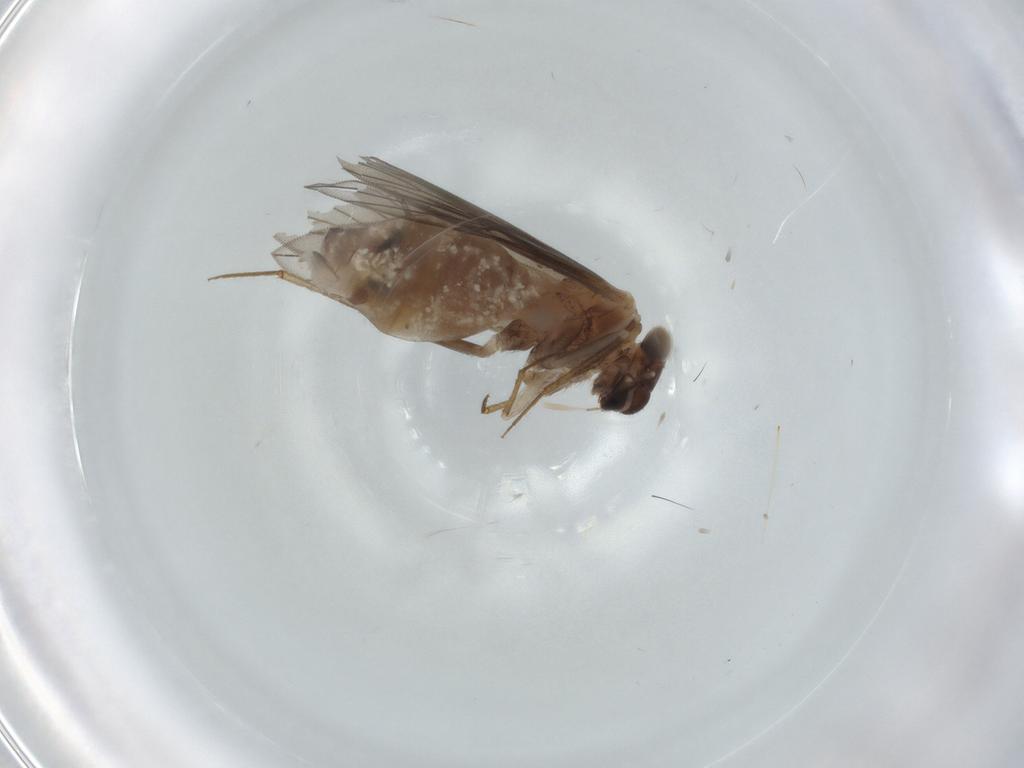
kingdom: Animalia
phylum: Arthropoda
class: Insecta
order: Psocodea
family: Lepidopsocidae
